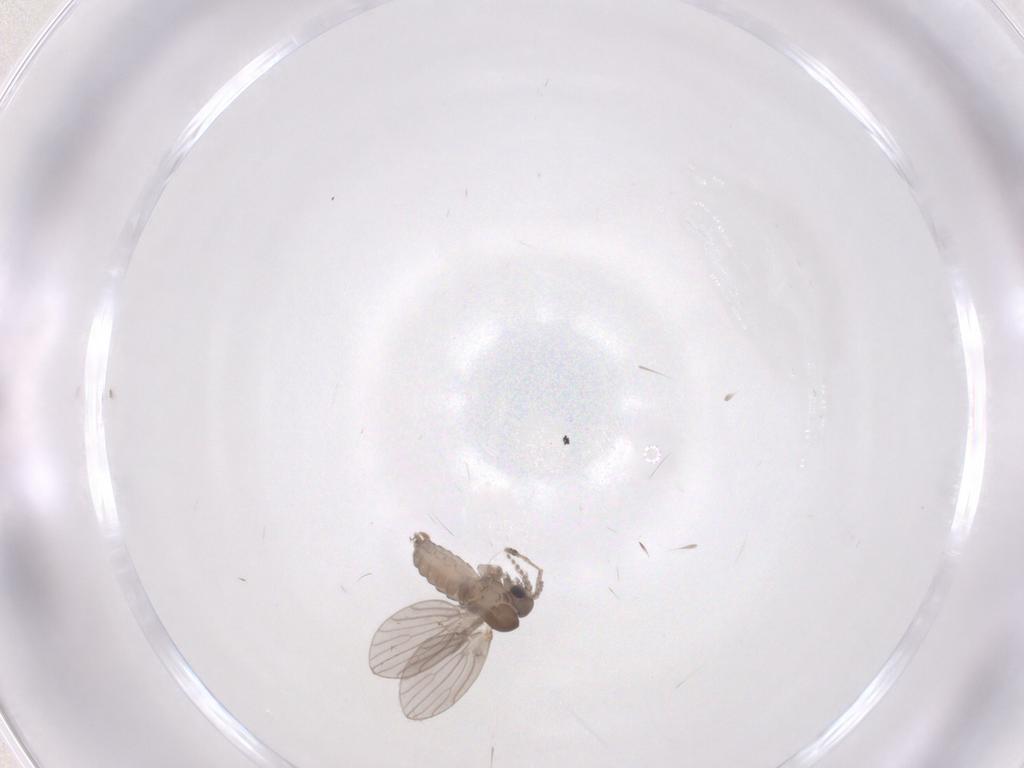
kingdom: Animalia
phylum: Arthropoda
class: Insecta
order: Diptera
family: Psychodidae
